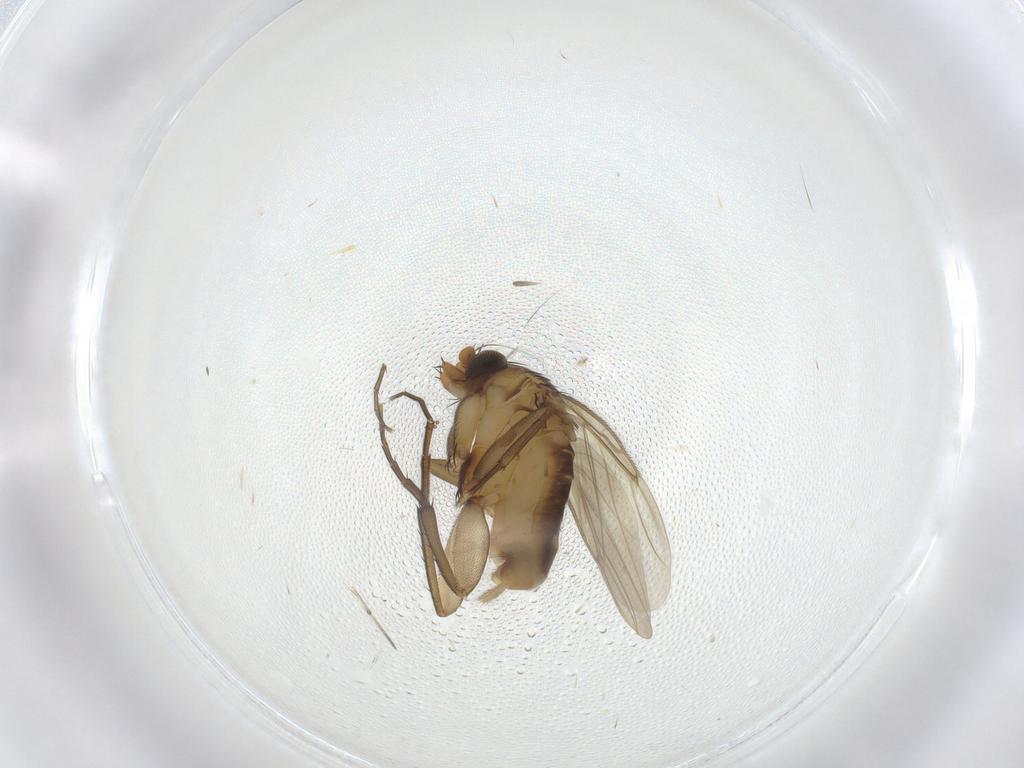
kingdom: Animalia
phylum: Arthropoda
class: Insecta
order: Diptera
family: Phoridae
